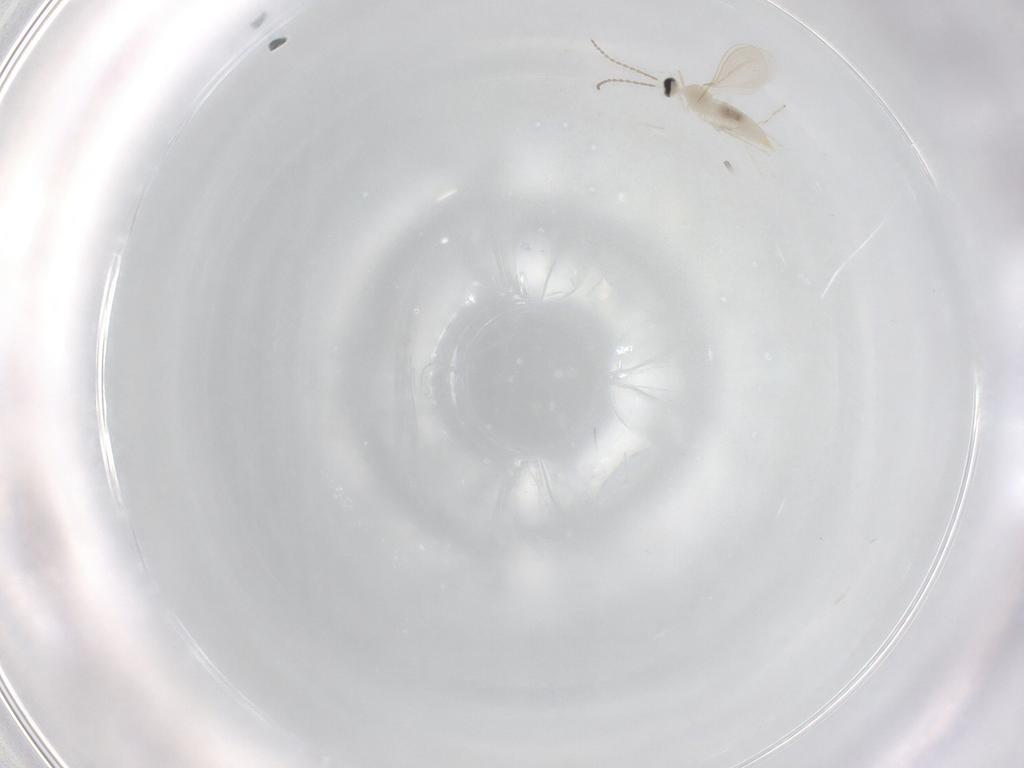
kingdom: Animalia
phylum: Arthropoda
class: Insecta
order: Diptera
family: Cecidomyiidae
